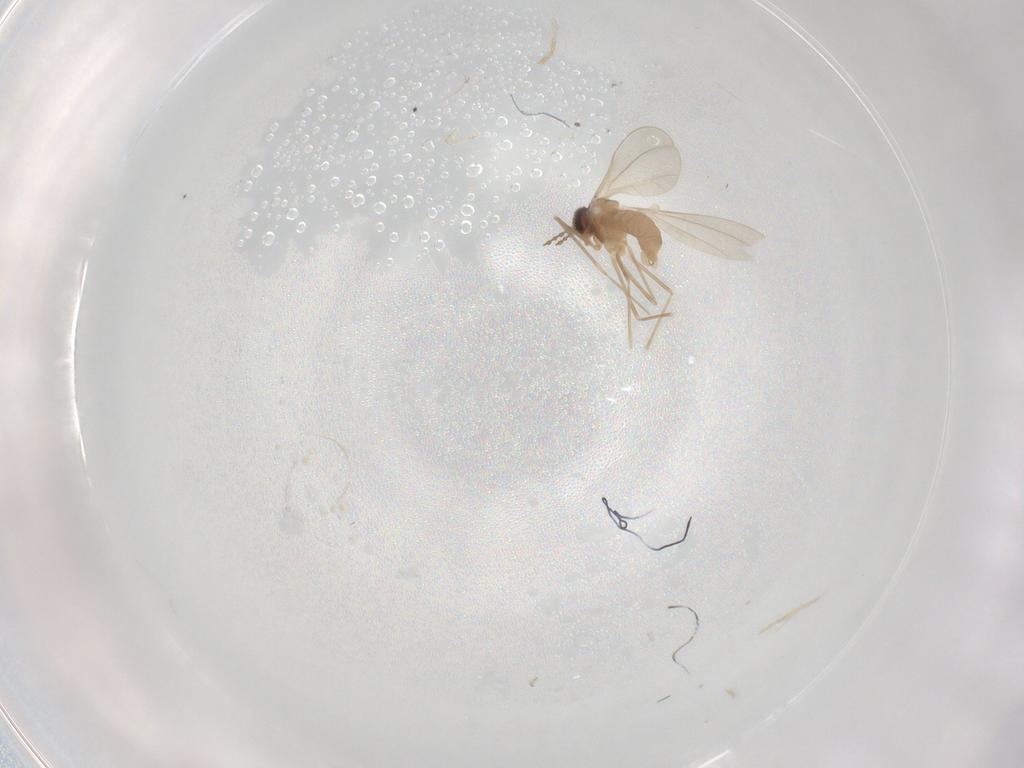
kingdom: Animalia
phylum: Arthropoda
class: Insecta
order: Diptera
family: Cecidomyiidae
